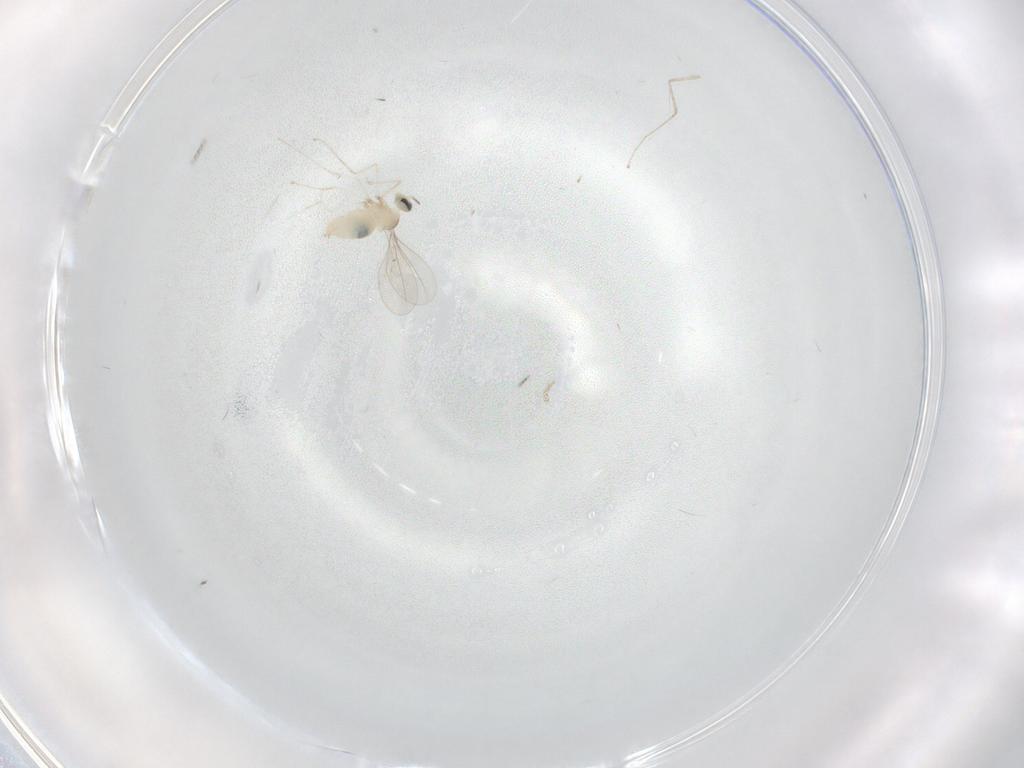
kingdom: Animalia
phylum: Arthropoda
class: Insecta
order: Diptera
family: Cecidomyiidae
